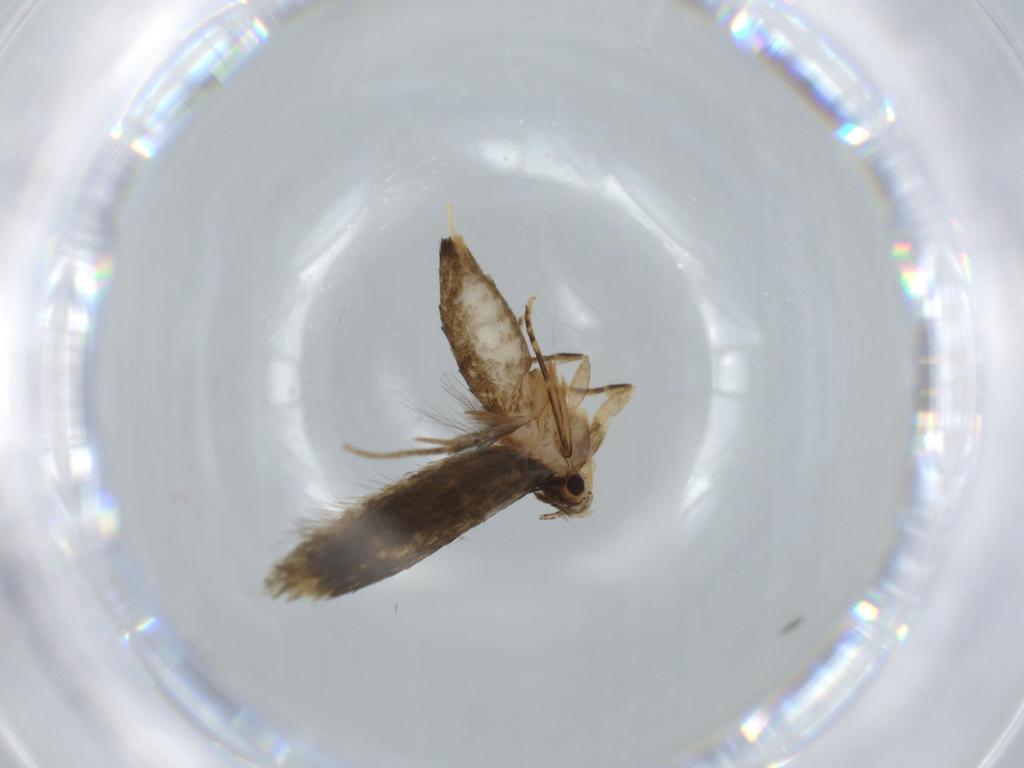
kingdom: Animalia
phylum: Arthropoda
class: Insecta
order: Lepidoptera
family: Tineidae
